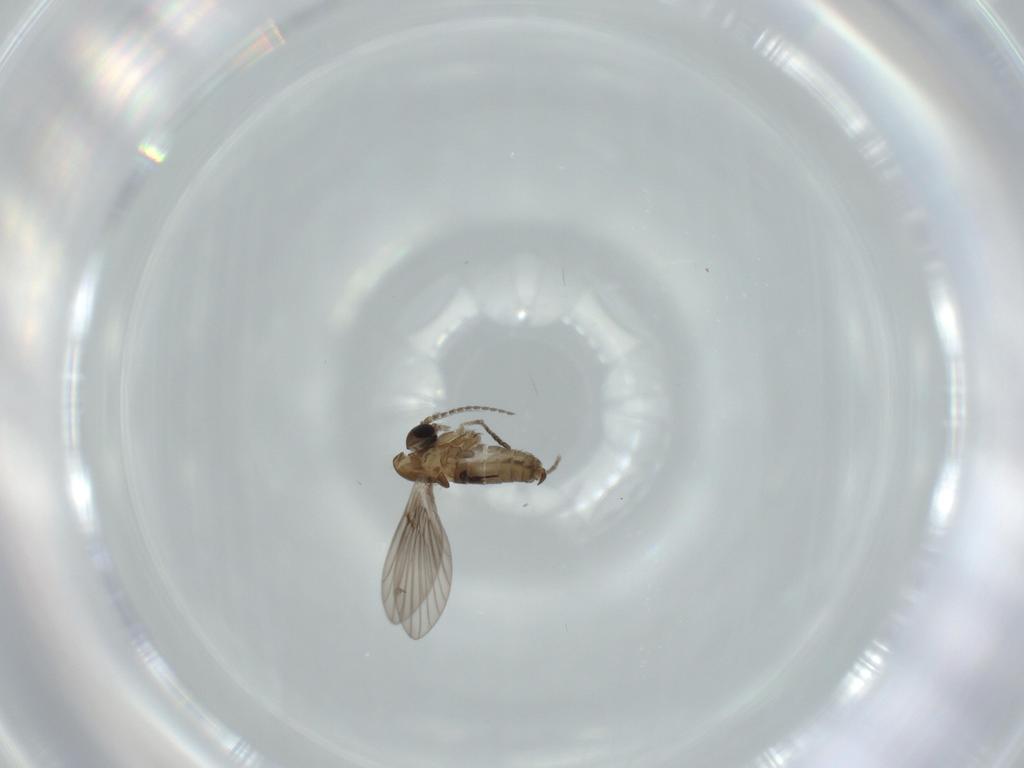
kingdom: Animalia
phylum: Arthropoda
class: Insecta
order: Diptera
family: Psychodidae
